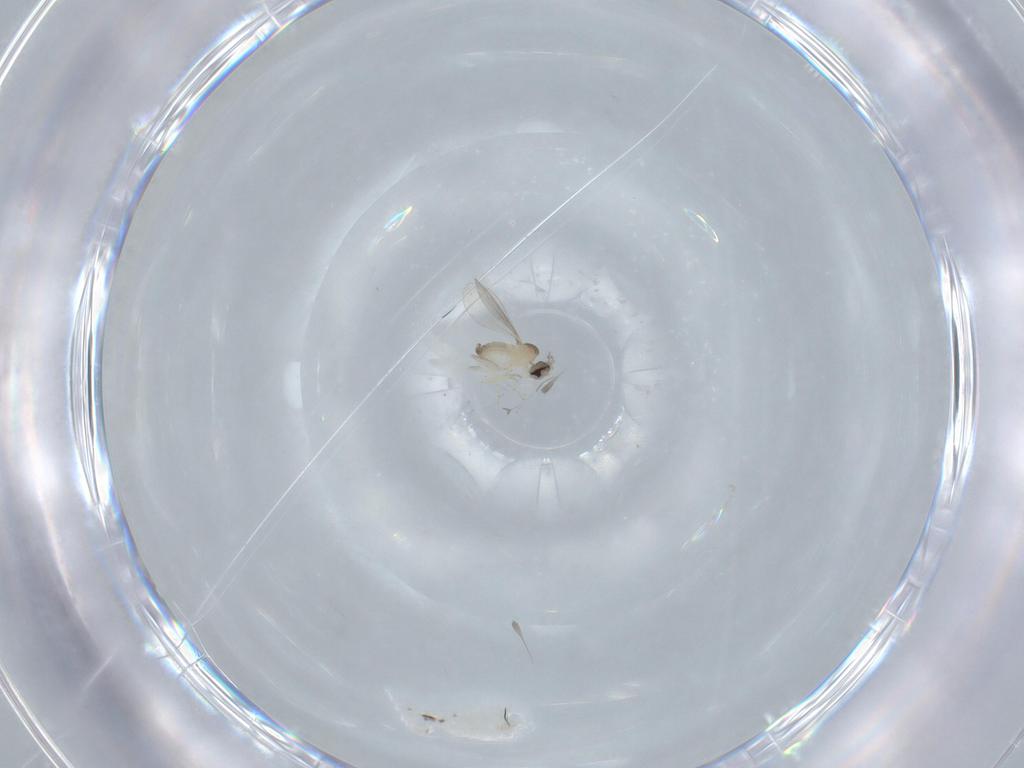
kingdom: Animalia
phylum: Arthropoda
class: Insecta
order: Diptera
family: Cecidomyiidae
